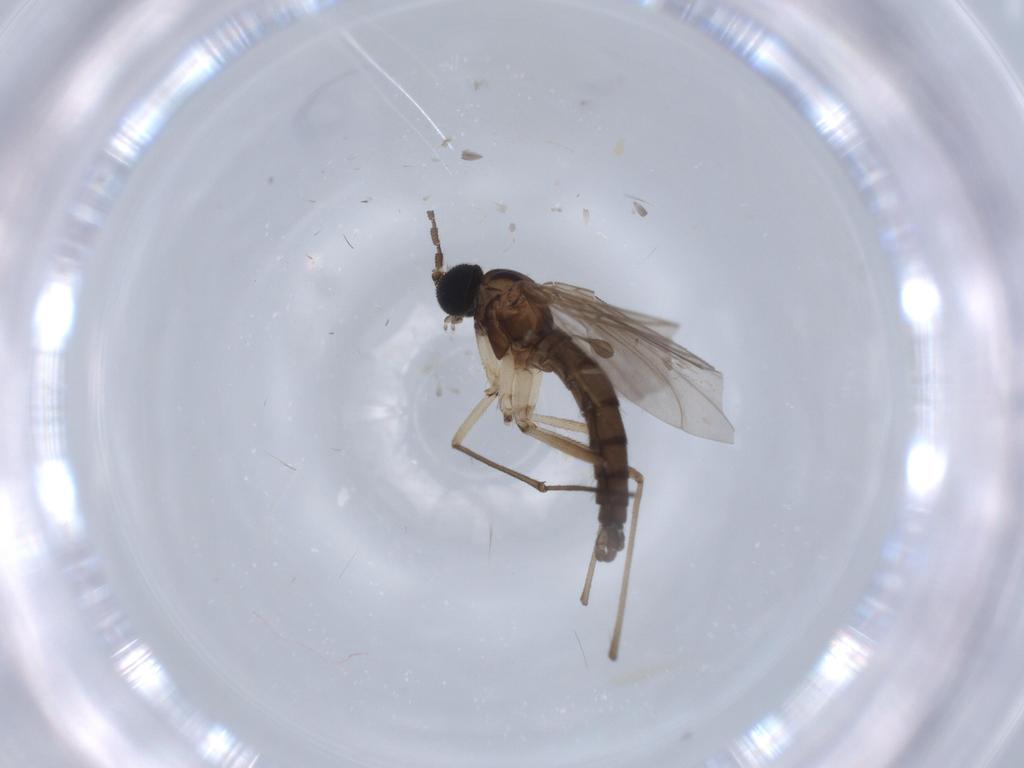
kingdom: Animalia
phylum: Arthropoda
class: Insecta
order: Diptera
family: Sciaridae
